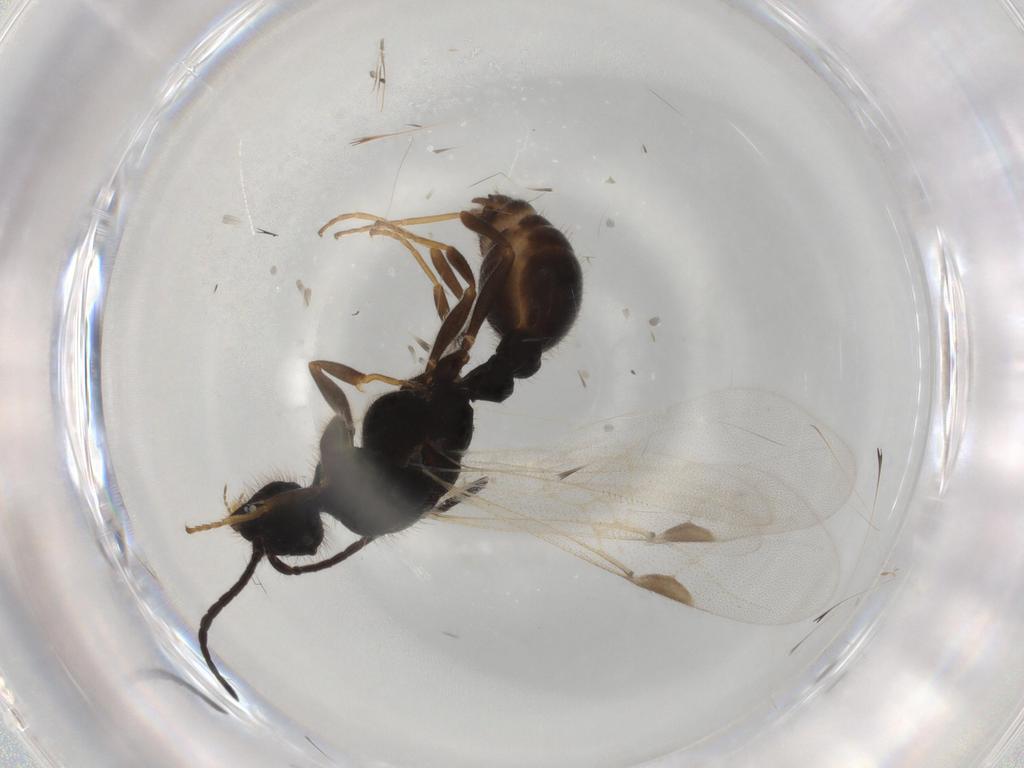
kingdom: Animalia
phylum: Arthropoda
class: Insecta
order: Hymenoptera
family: Formicidae
